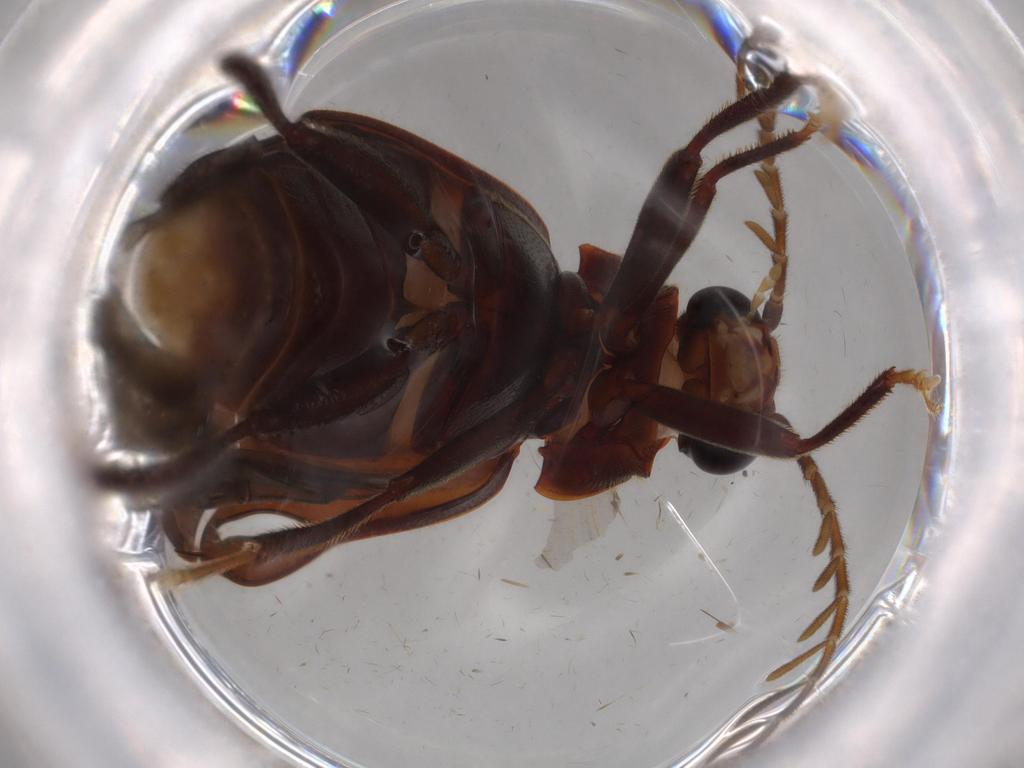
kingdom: Animalia
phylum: Arthropoda
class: Insecta
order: Coleoptera
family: Ptilodactylidae
